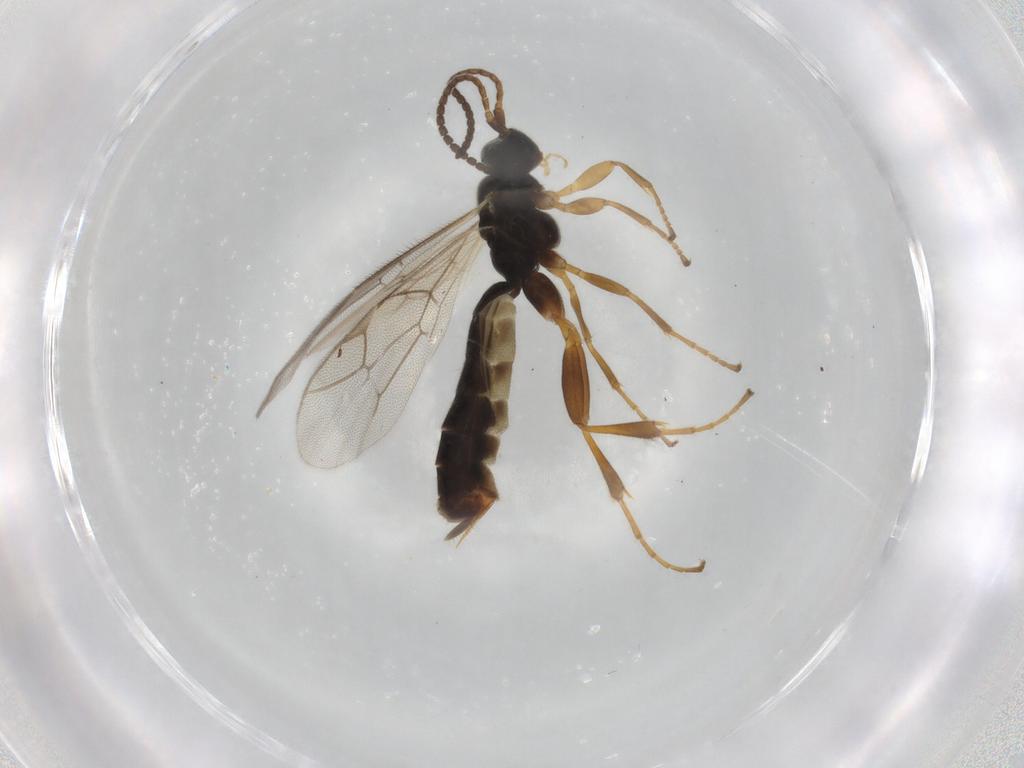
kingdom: Animalia
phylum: Arthropoda
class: Insecta
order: Hymenoptera
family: Ichneumonidae
